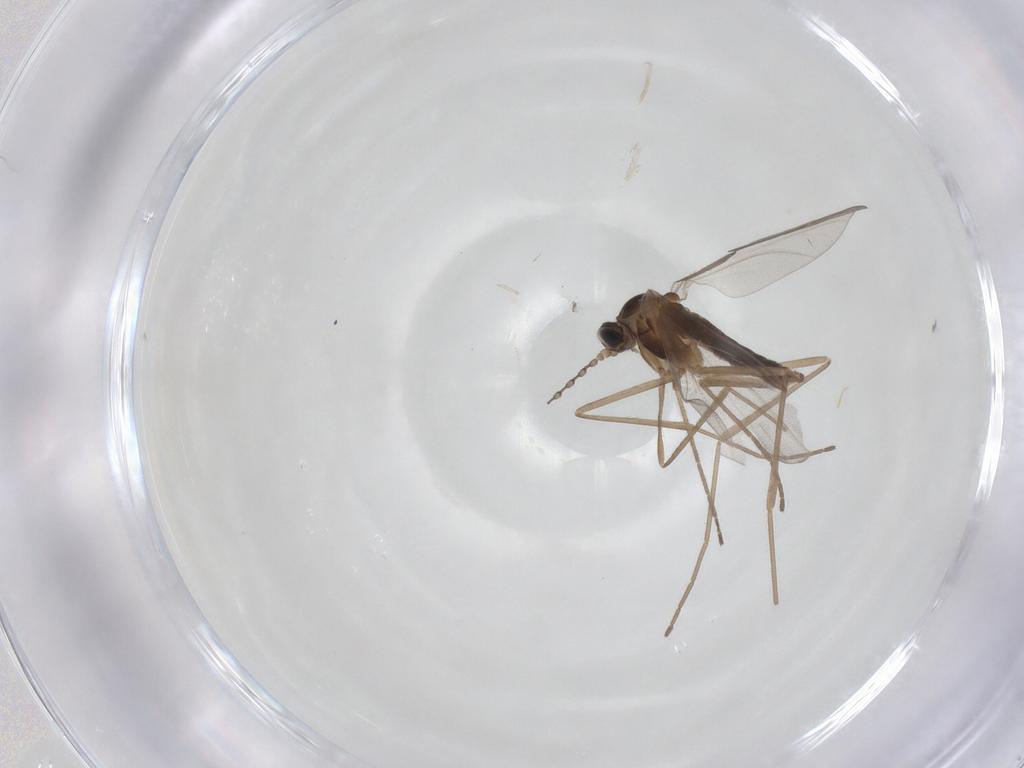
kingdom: Animalia
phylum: Arthropoda
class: Insecta
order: Diptera
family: Cecidomyiidae
